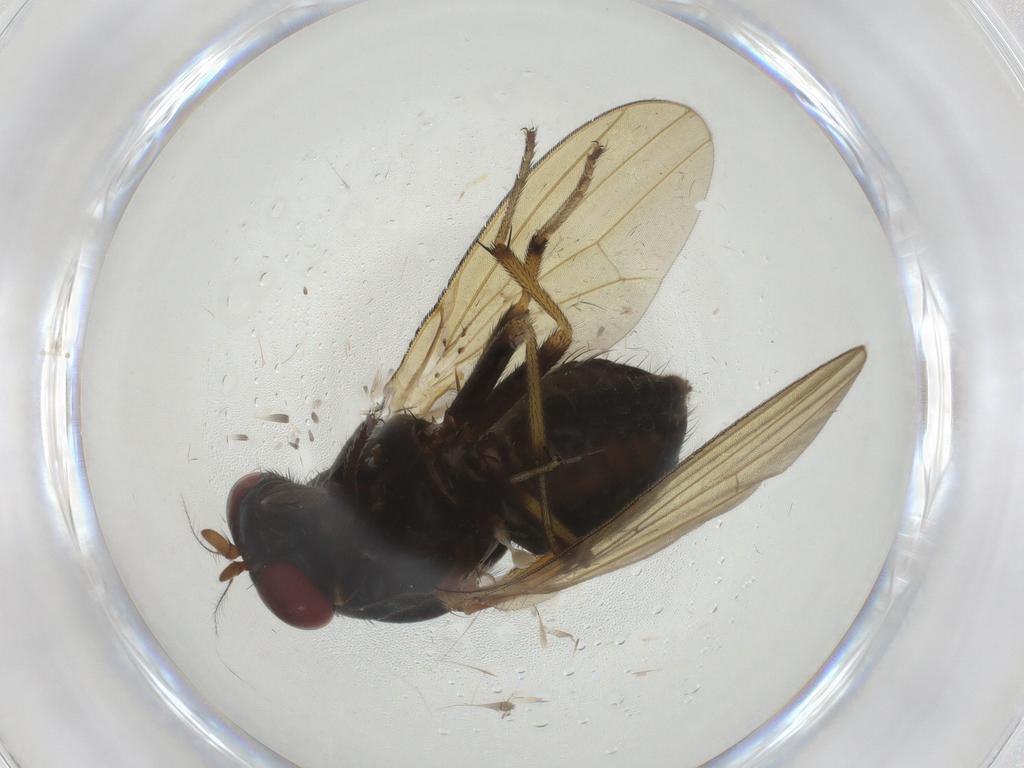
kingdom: Animalia
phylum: Arthropoda
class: Insecta
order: Diptera
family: Limoniidae
